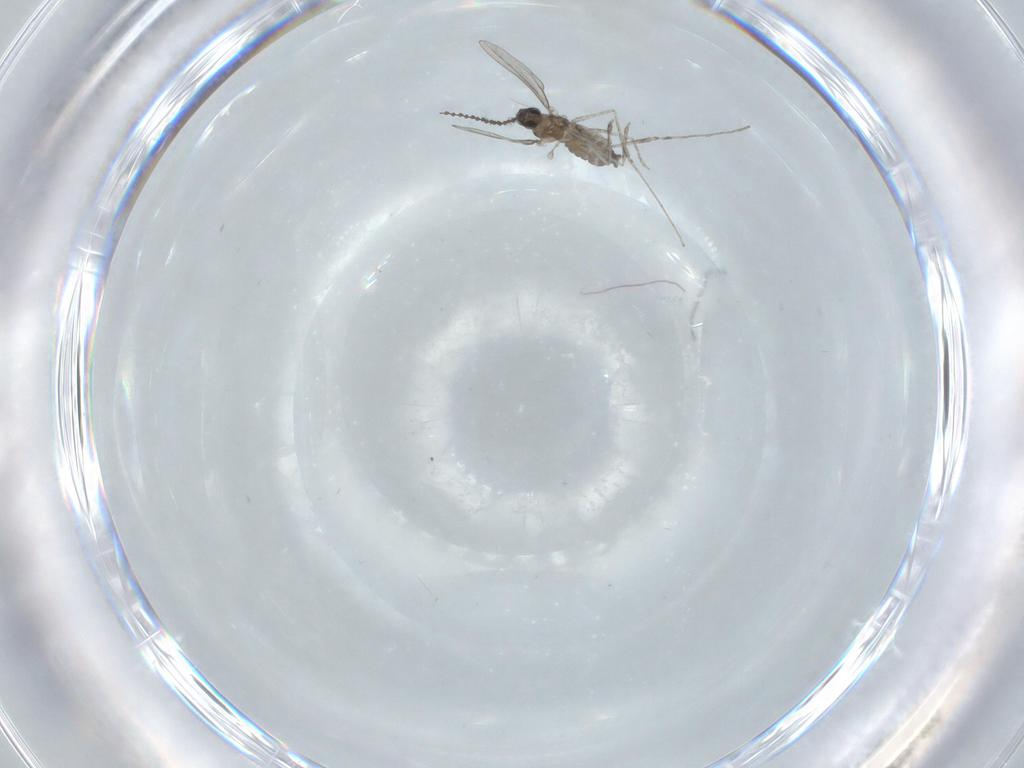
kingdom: Animalia
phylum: Arthropoda
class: Insecta
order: Diptera
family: Cecidomyiidae
